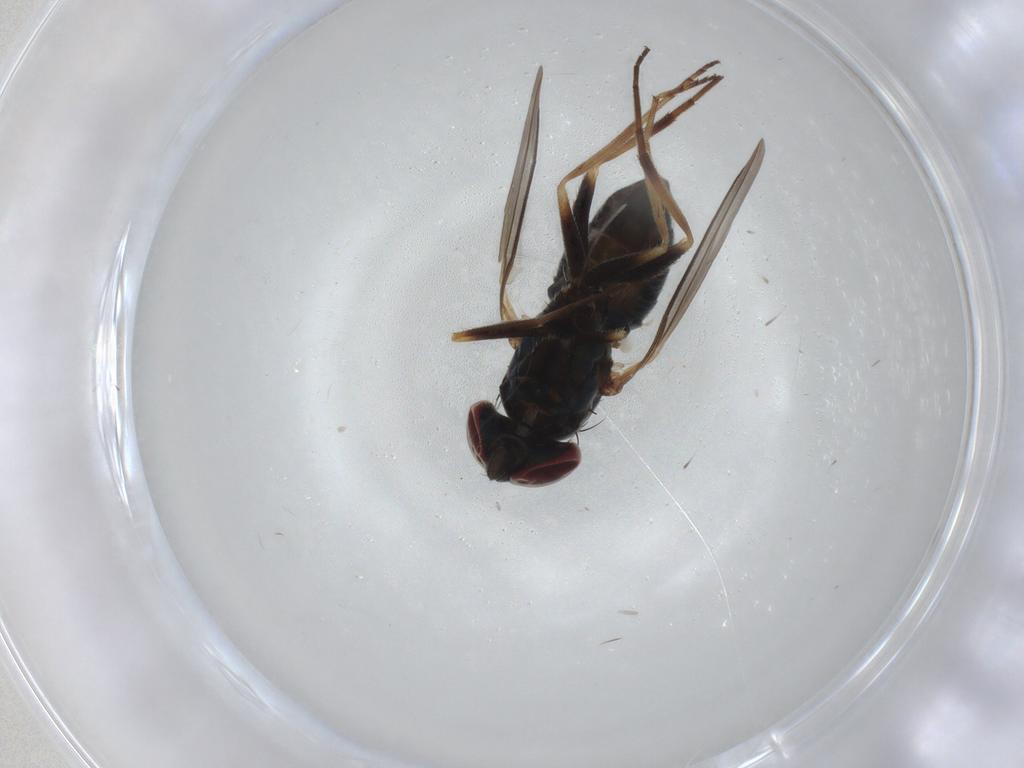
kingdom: Animalia
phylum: Arthropoda
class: Insecta
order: Diptera
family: Dolichopodidae
